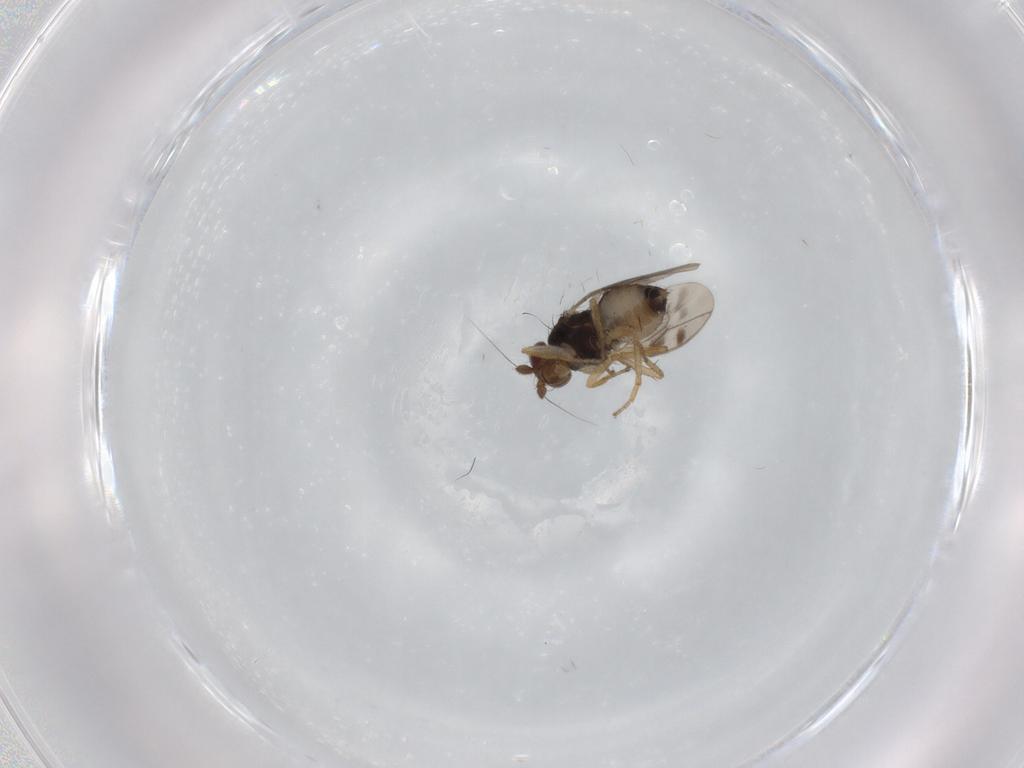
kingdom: Animalia
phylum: Arthropoda
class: Insecta
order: Diptera
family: Sphaeroceridae
